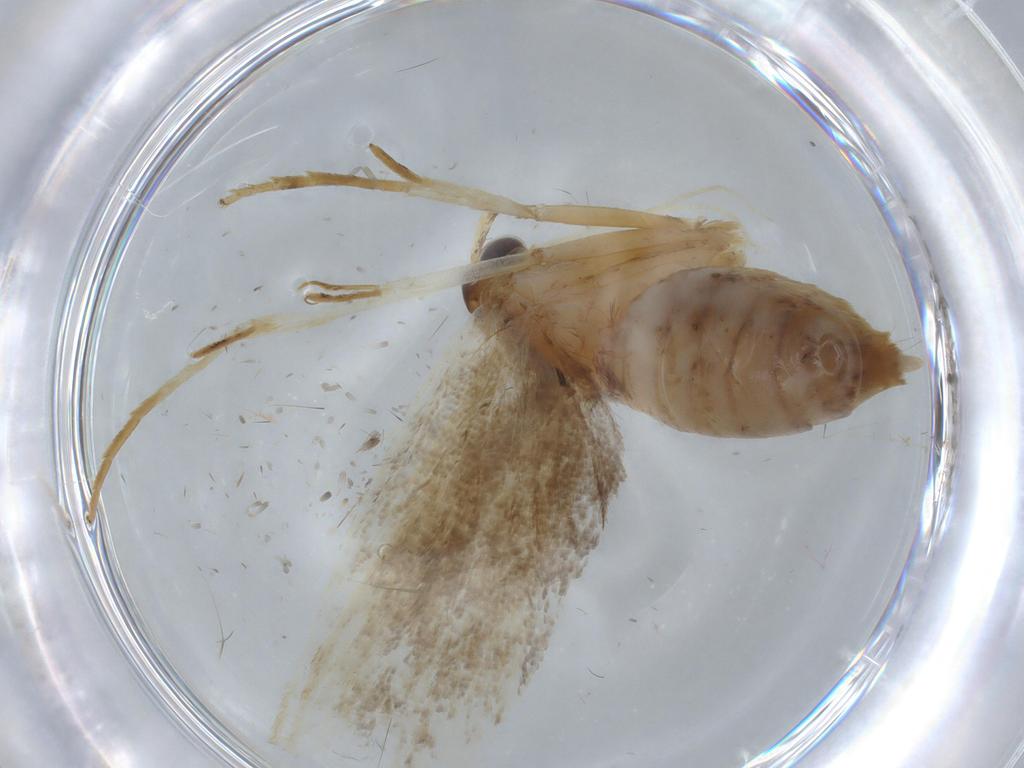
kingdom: Animalia
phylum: Arthropoda
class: Insecta
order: Lepidoptera
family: Lecithoceridae
